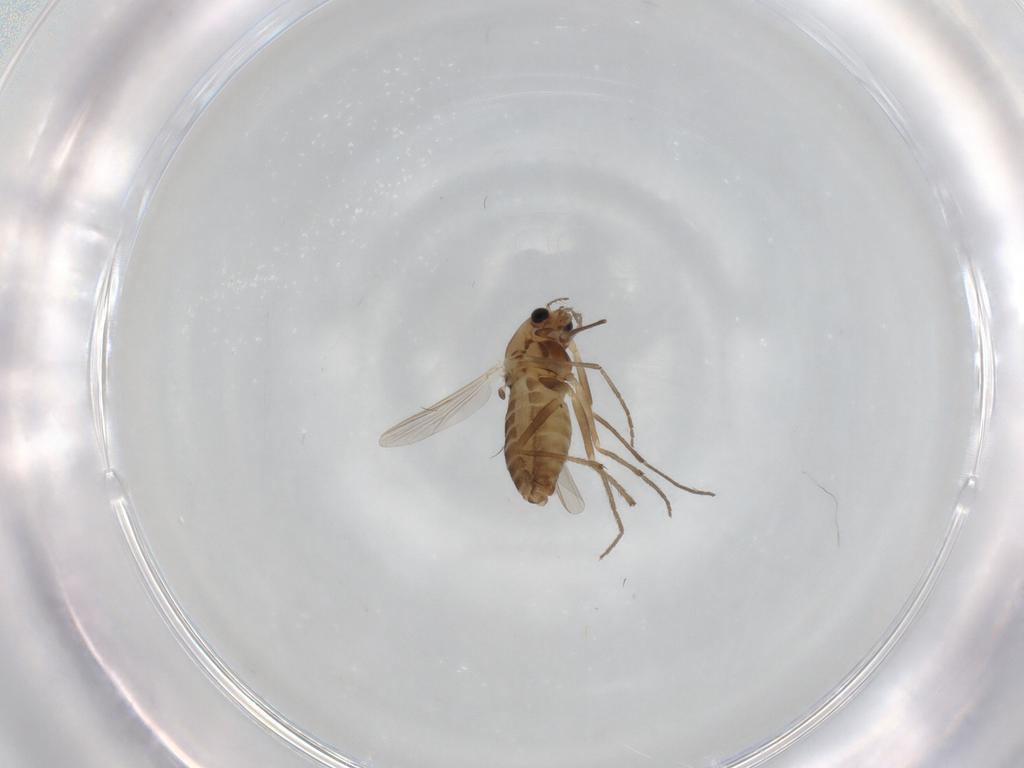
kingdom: Animalia
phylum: Arthropoda
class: Insecta
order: Diptera
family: Chironomidae
